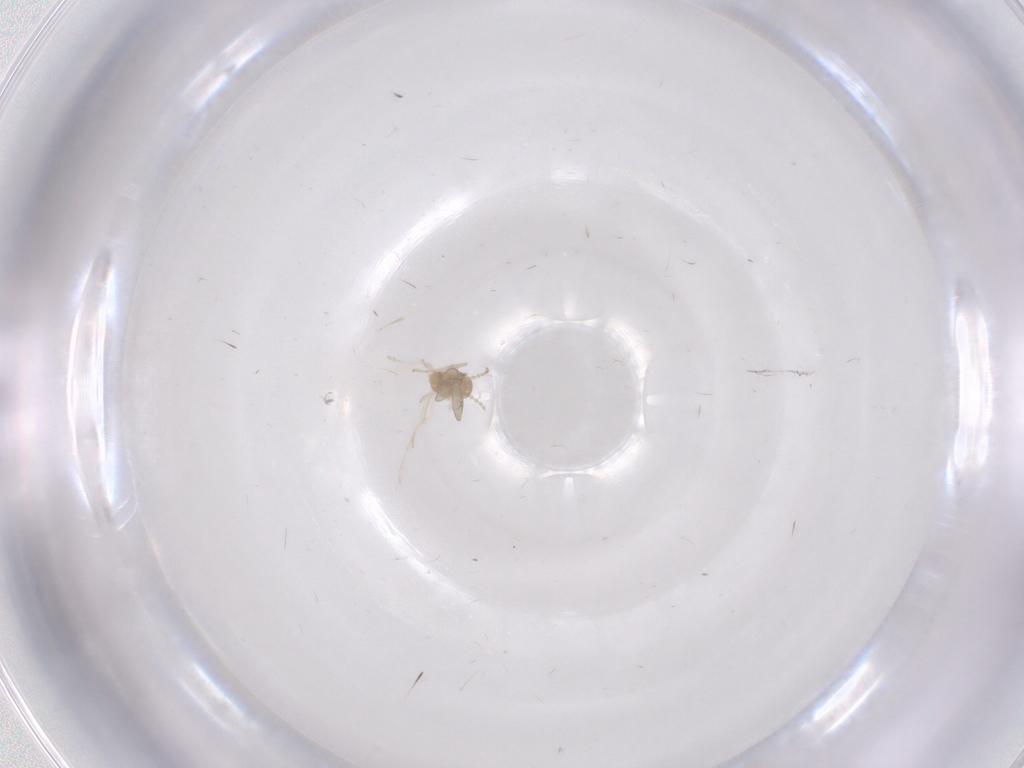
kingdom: Animalia
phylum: Arthropoda
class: Insecta
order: Diptera
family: Cecidomyiidae
